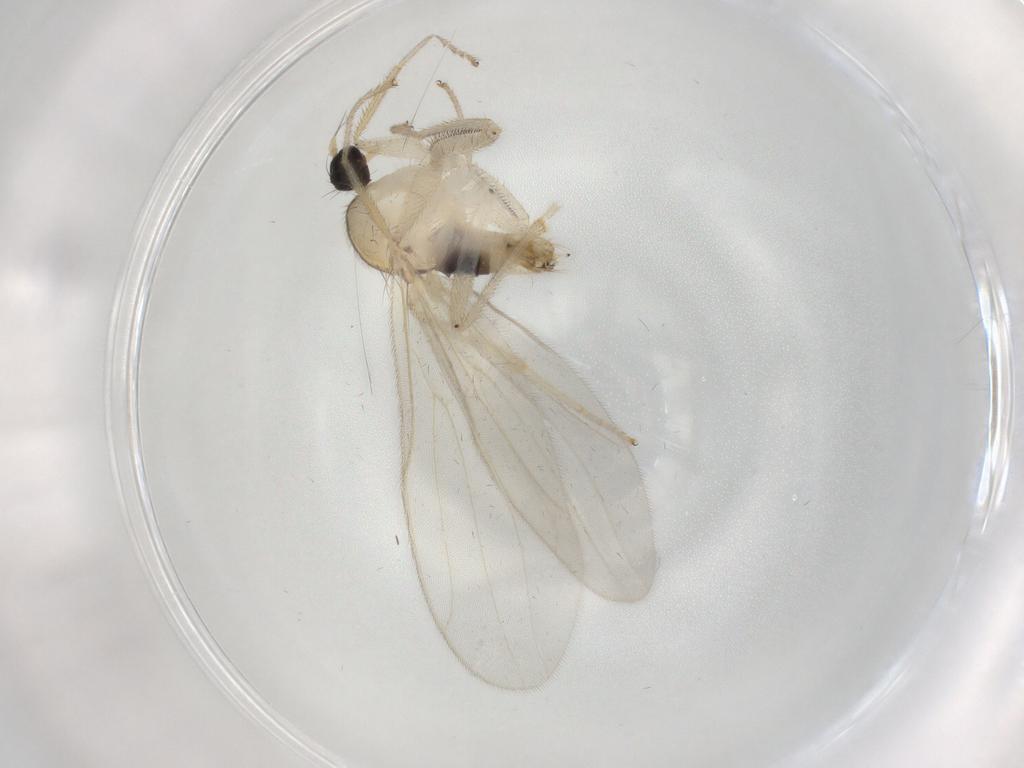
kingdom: Animalia
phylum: Arthropoda
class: Insecta
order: Diptera
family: Hybotidae
